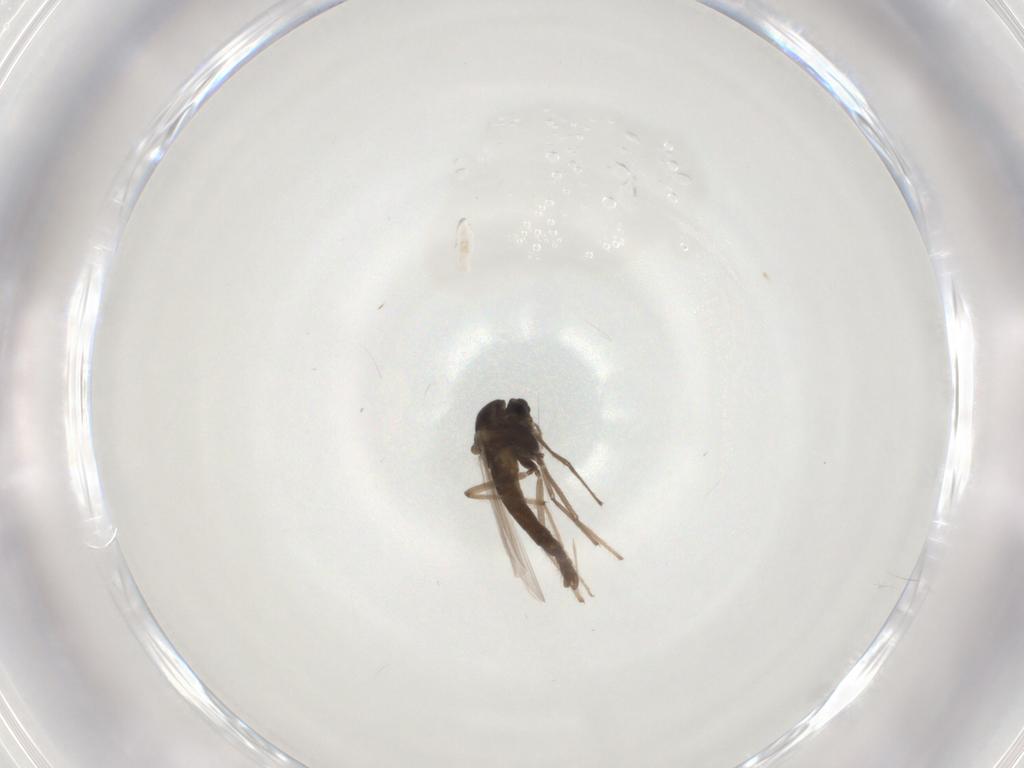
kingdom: Animalia
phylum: Arthropoda
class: Insecta
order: Diptera
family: Chironomidae
